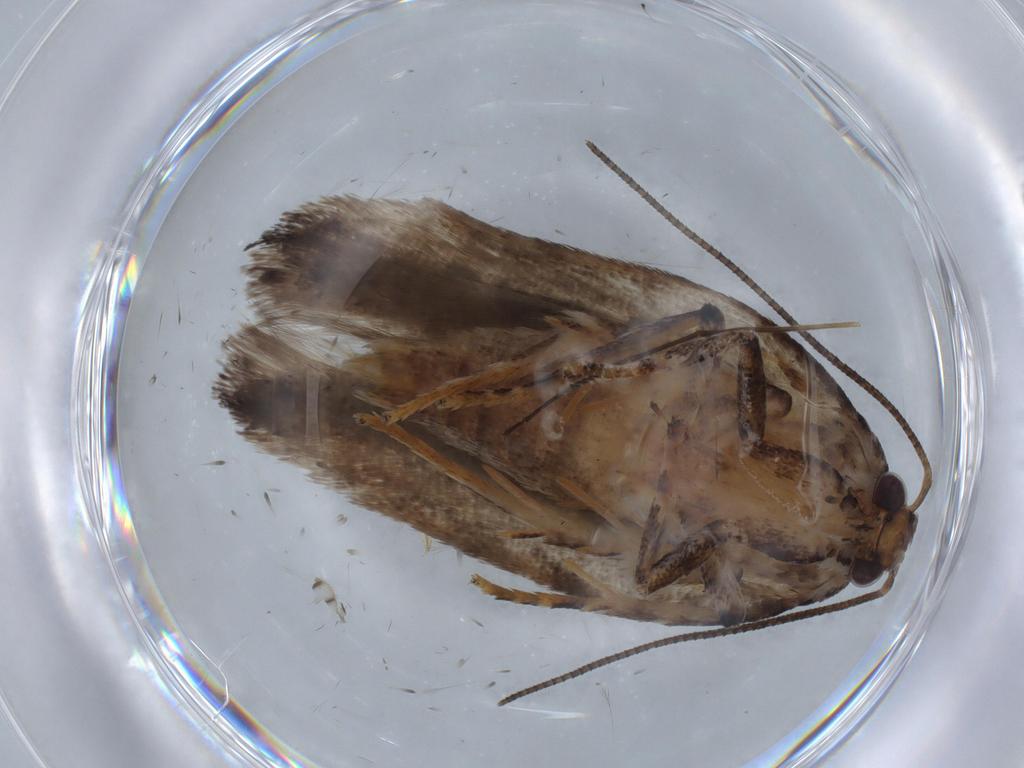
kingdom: Animalia
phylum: Arthropoda
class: Insecta
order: Lepidoptera
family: Gelechiidae
